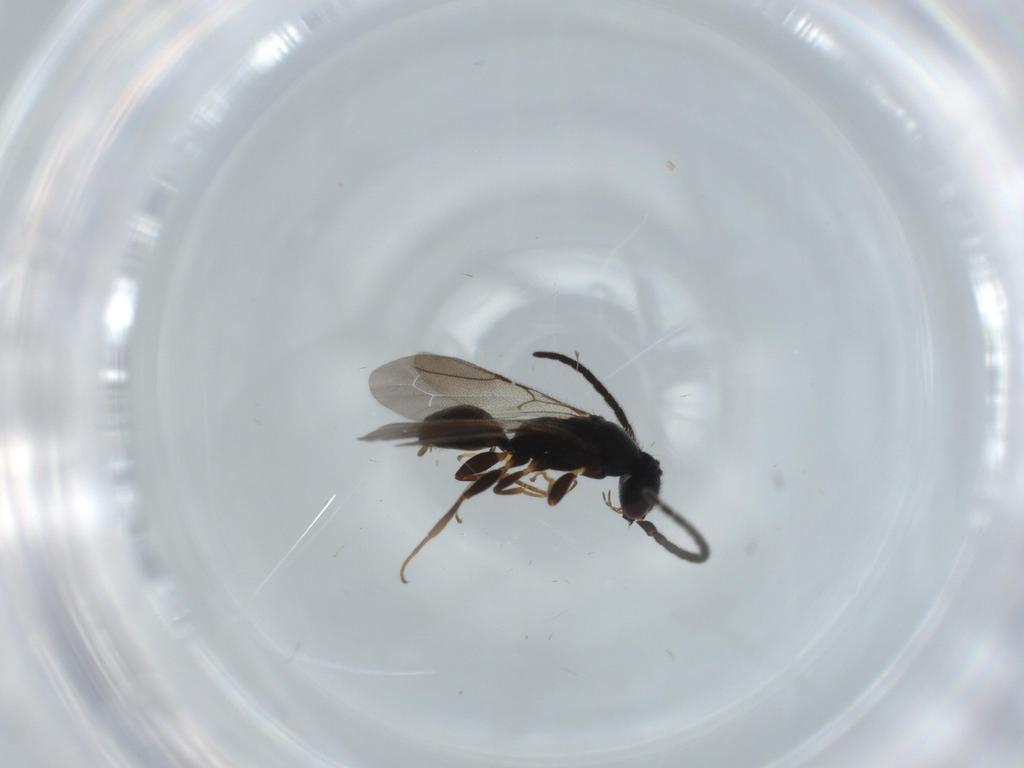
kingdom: Animalia
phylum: Arthropoda
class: Insecta
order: Hymenoptera
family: Bethylidae
